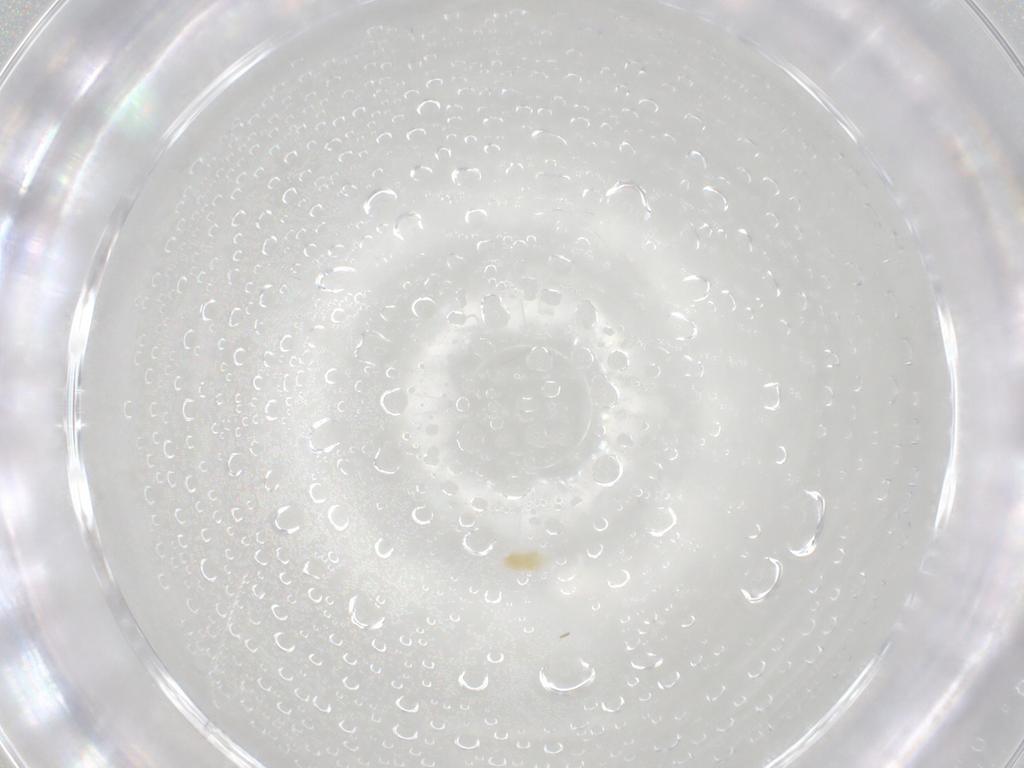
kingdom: Animalia
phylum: Arthropoda
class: Arachnida
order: Trombidiformes
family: Eupodidae
